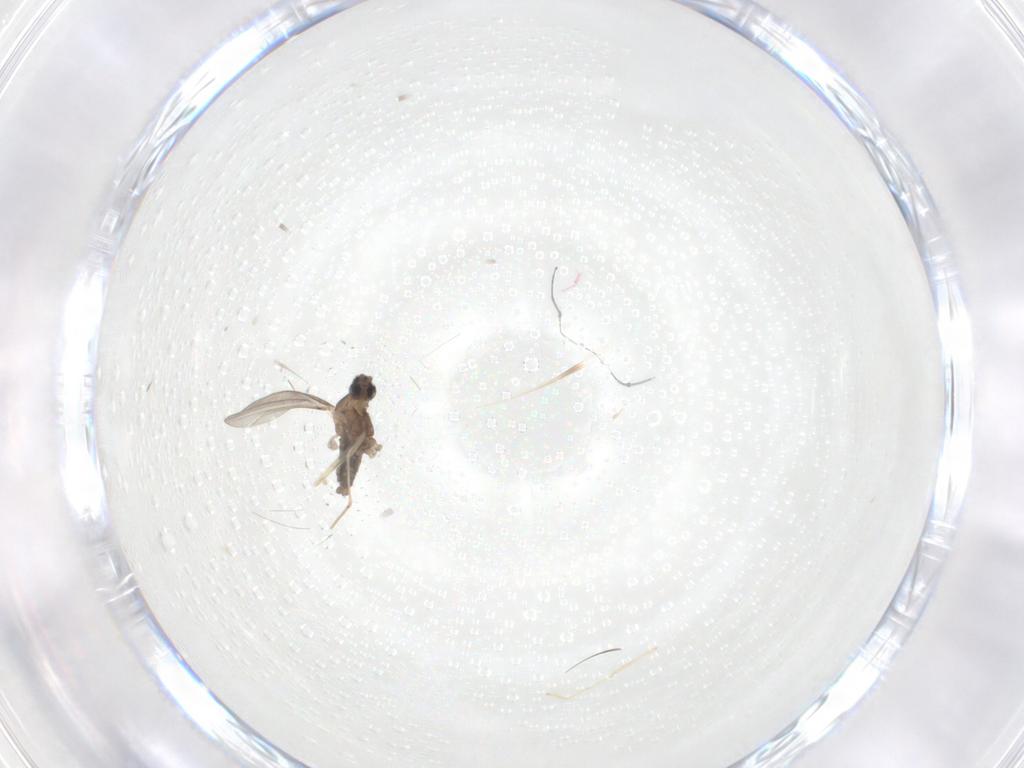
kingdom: Animalia
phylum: Arthropoda
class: Insecta
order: Diptera
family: Chironomidae
